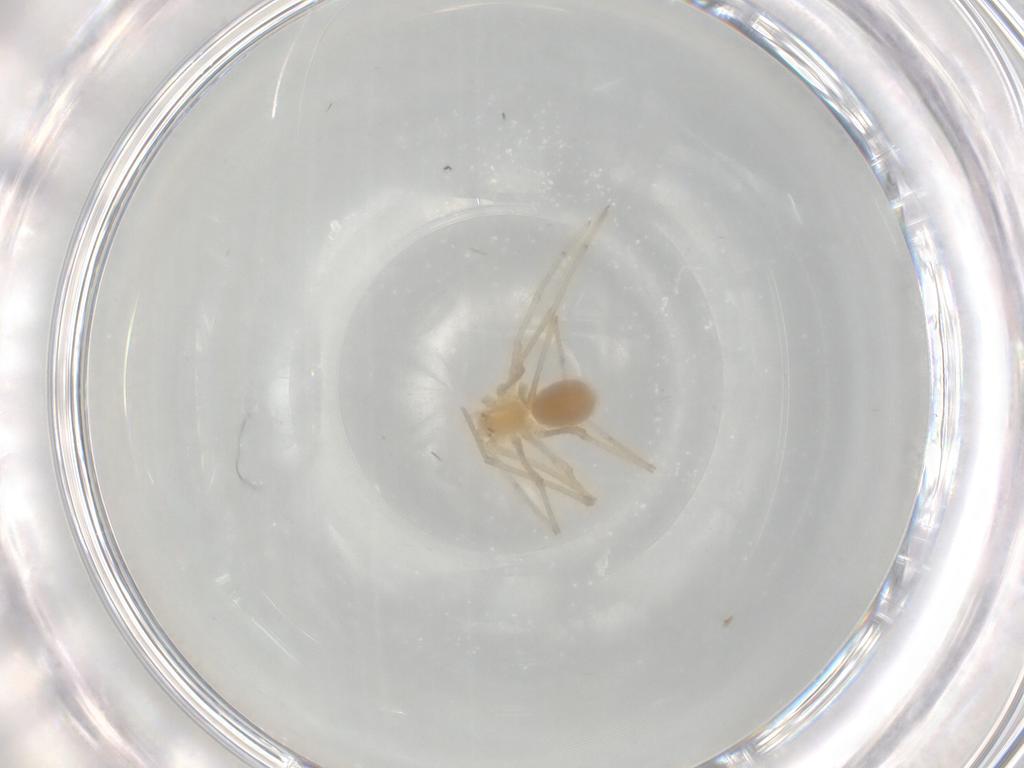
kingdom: Animalia
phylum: Arthropoda
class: Arachnida
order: Araneae
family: Pholcidae
